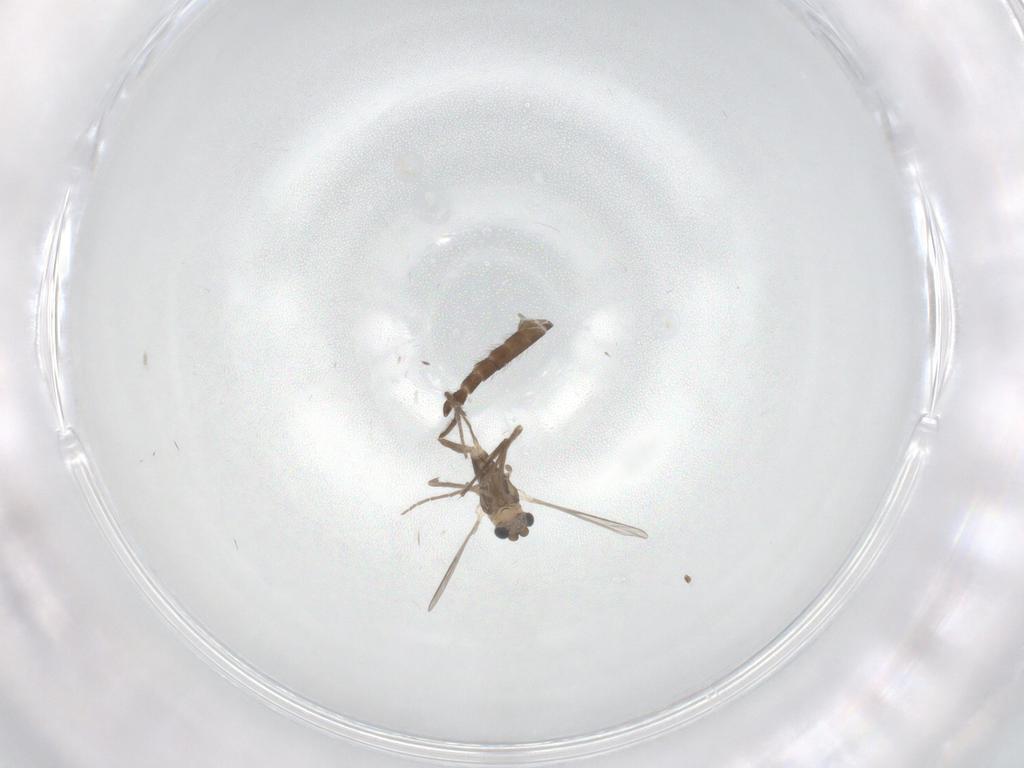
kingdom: Animalia
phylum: Arthropoda
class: Insecta
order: Diptera
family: Chironomidae
